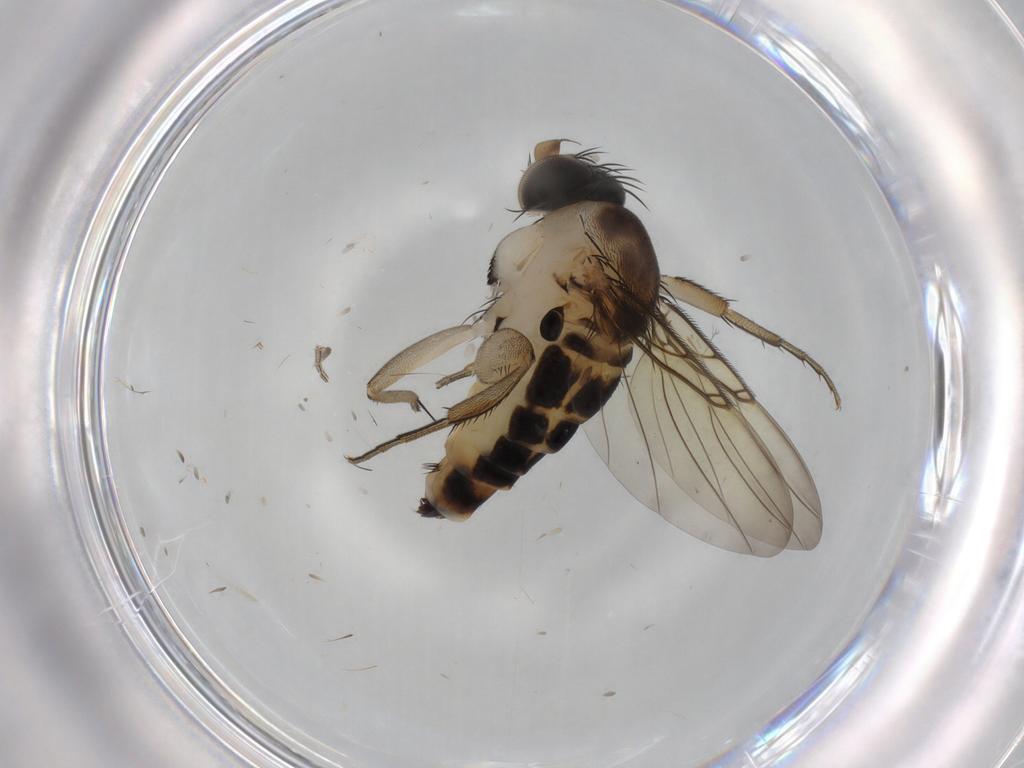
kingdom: Animalia
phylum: Arthropoda
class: Insecta
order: Diptera
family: Phoridae
